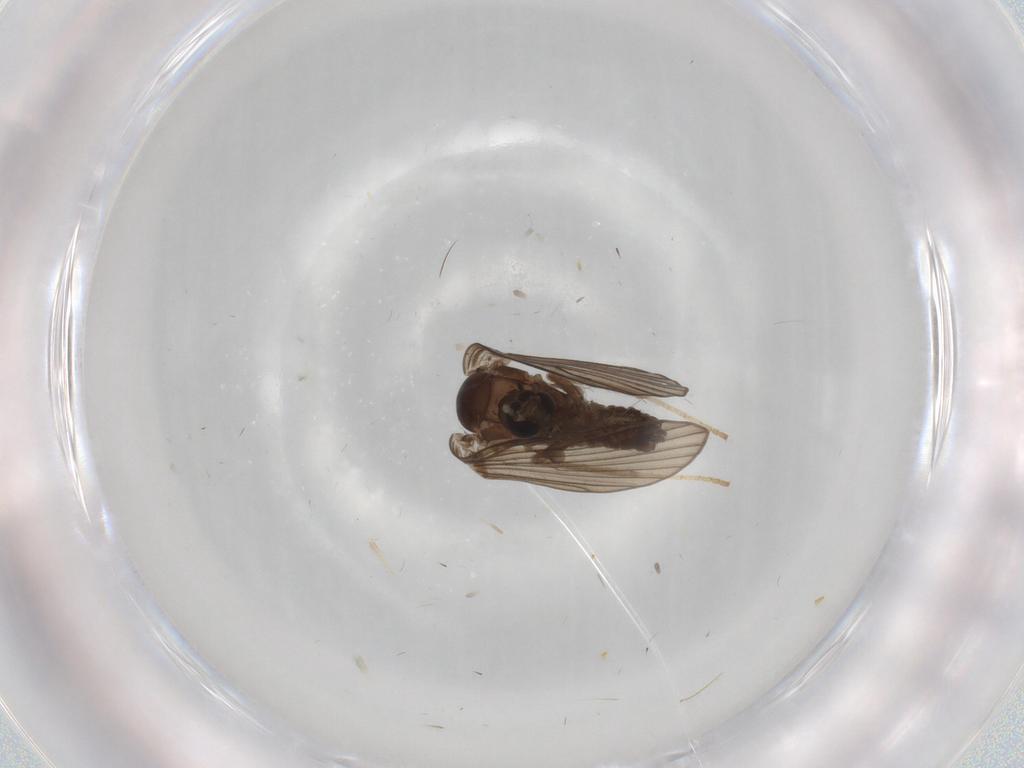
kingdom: Animalia
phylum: Arthropoda
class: Insecta
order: Diptera
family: Psychodidae
